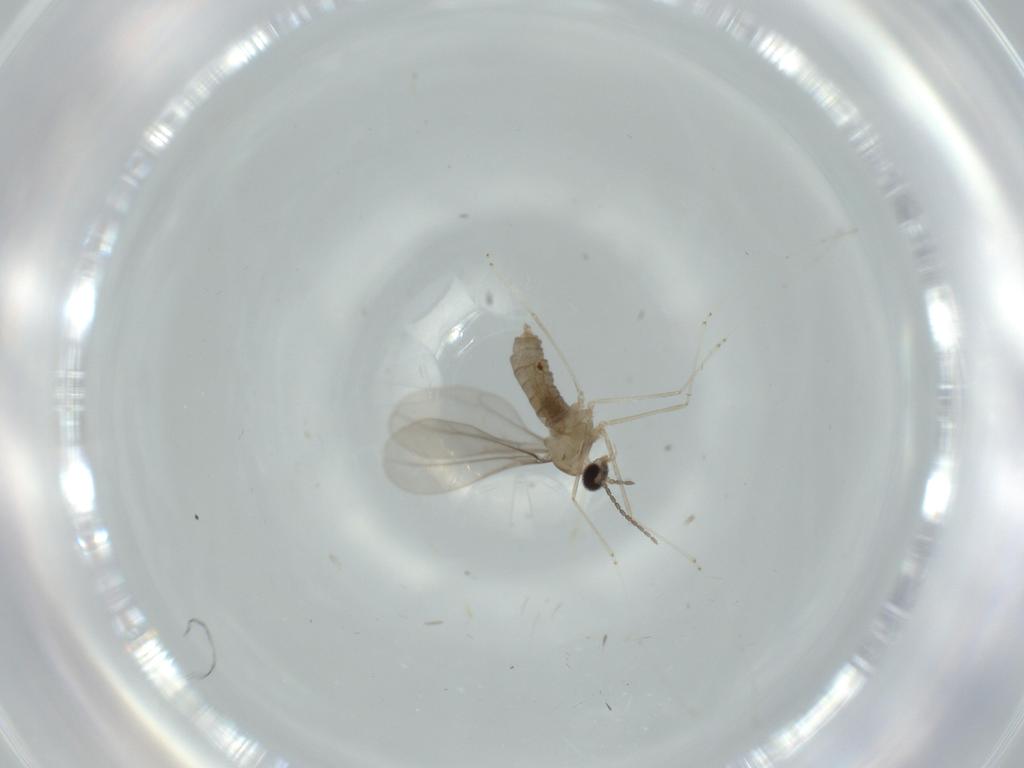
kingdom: Animalia
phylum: Arthropoda
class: Insecta
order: Diptera
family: Cecidomyiidae
